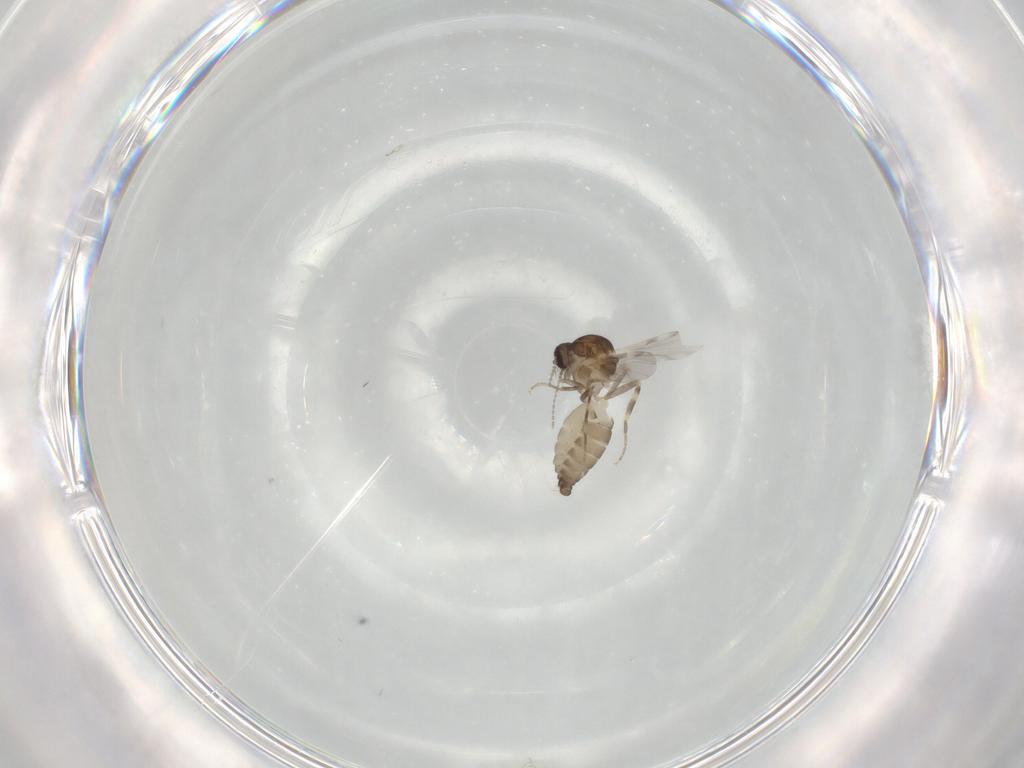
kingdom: Animalia
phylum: Arthropoda
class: Insecta
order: Diptera
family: Ceratopogonidae
